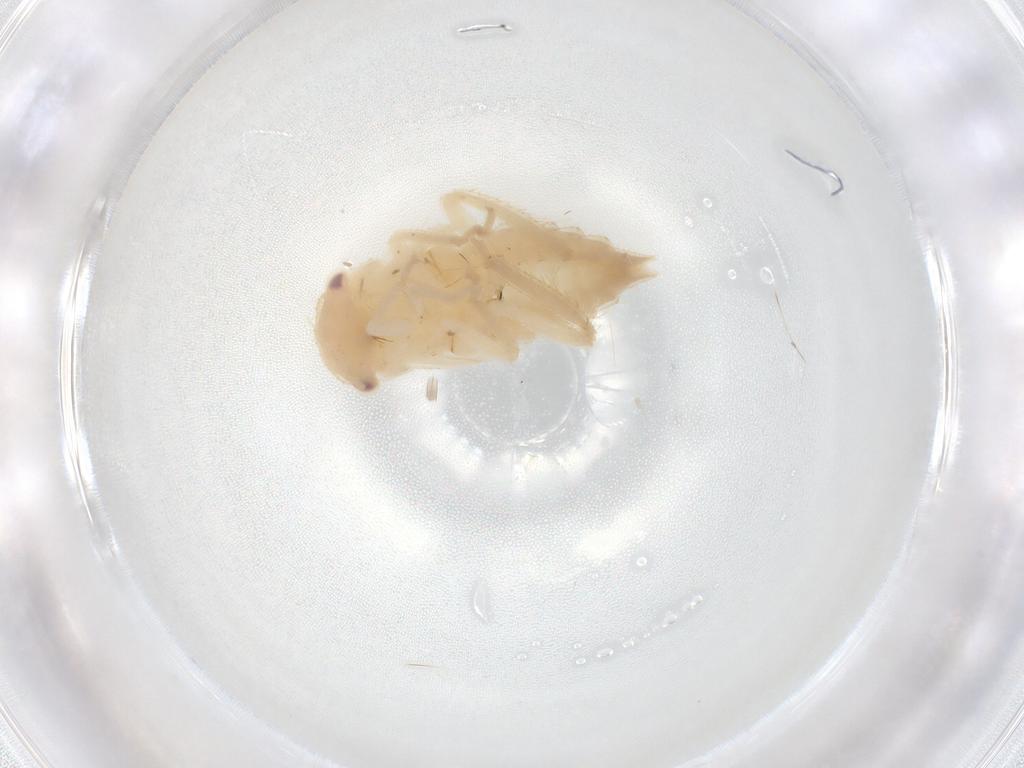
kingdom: Animalia
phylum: Arthropoda
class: Insecta
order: Hemiptera
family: Cicadellidae
